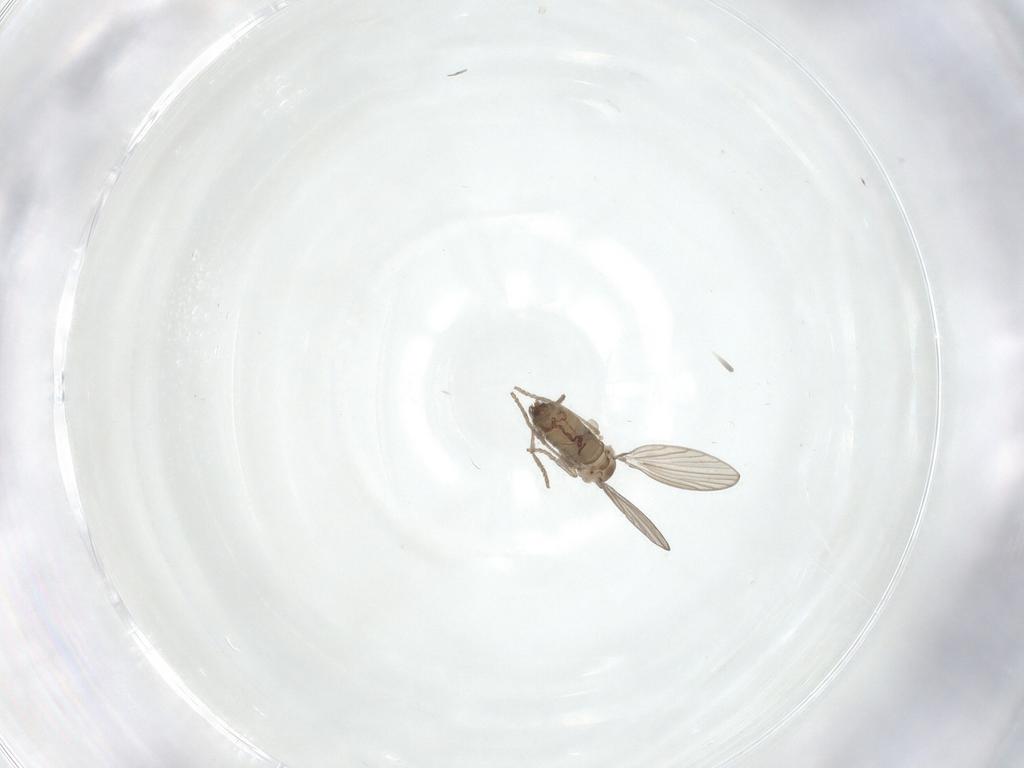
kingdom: Animalia
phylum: Arthropoda
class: Insecta
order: Diptera
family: Psychodidae
